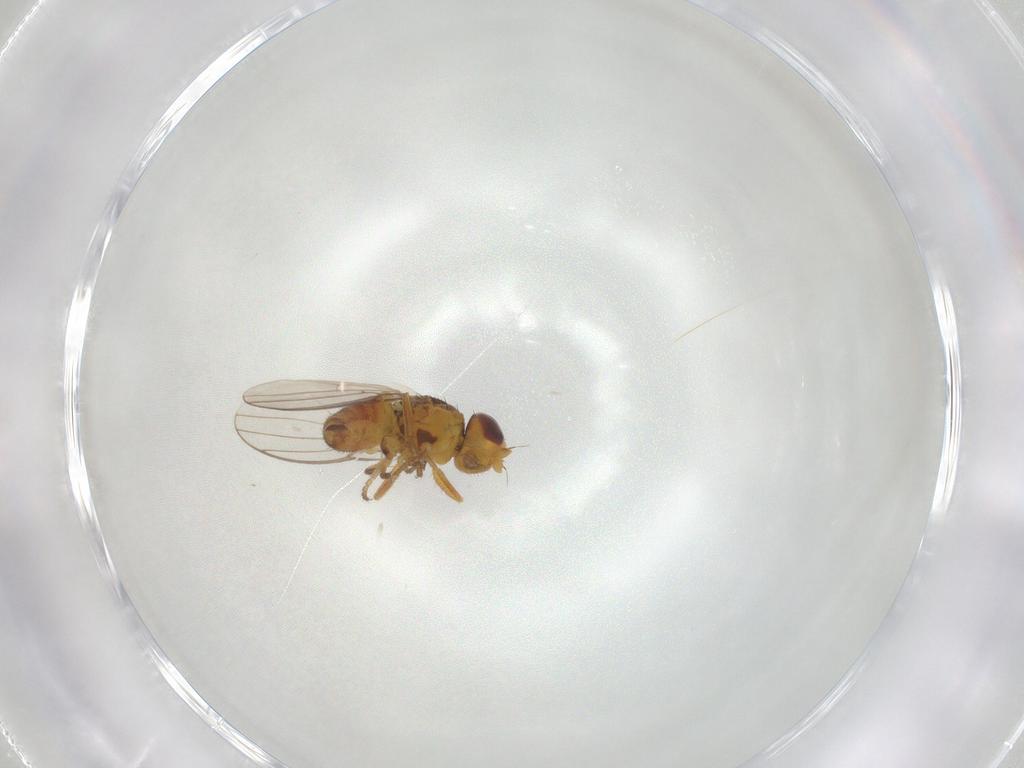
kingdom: Animalia
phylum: Arthropoda
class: Insecta
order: Diptera
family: Chloropidae
